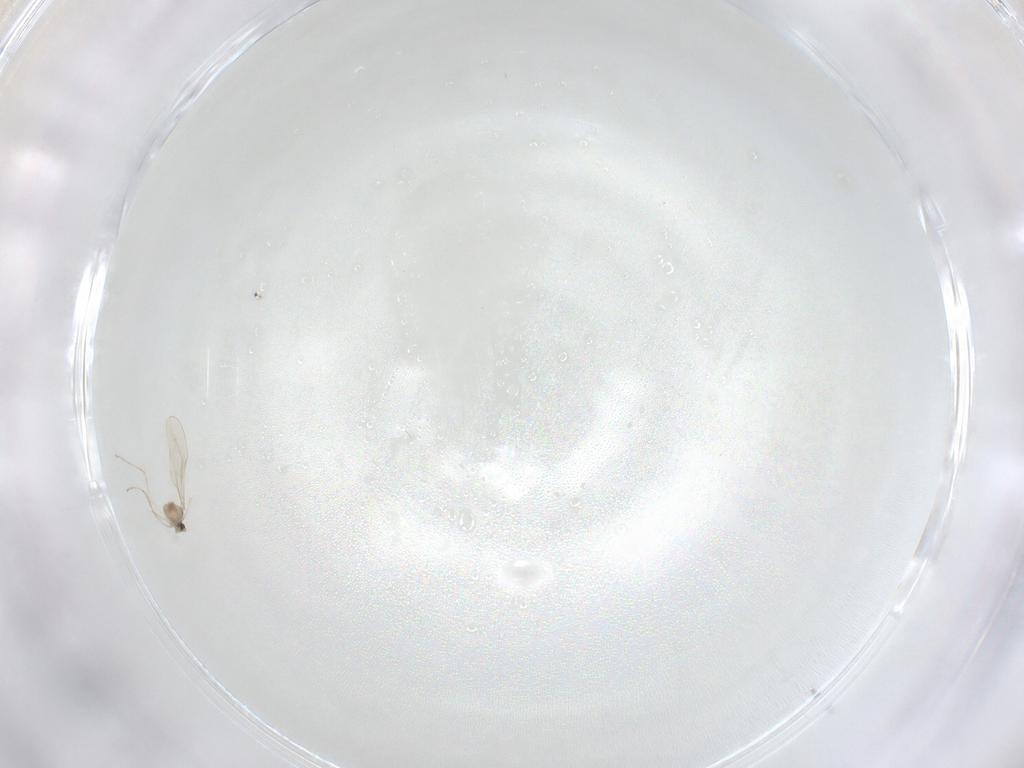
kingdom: Animalia
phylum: Arthropoda
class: Insecta
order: Diptera
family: Cecidomyiidae
